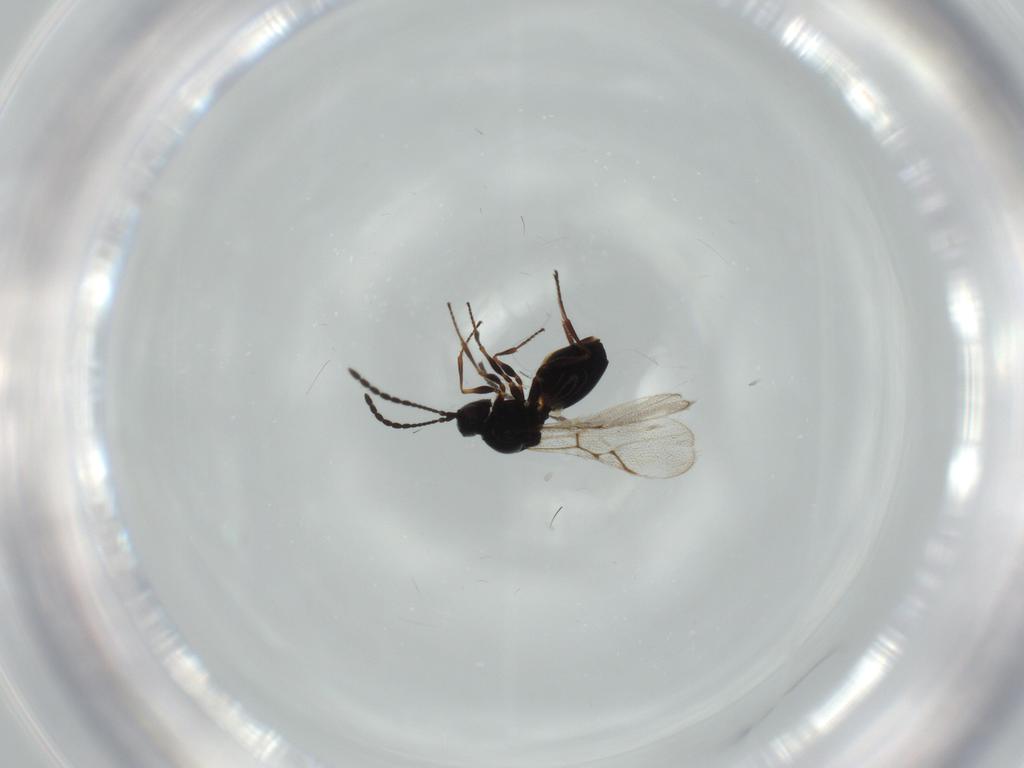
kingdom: Animalia
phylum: Arthropoda
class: Insecta
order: Hymenoptera
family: Figitidae
